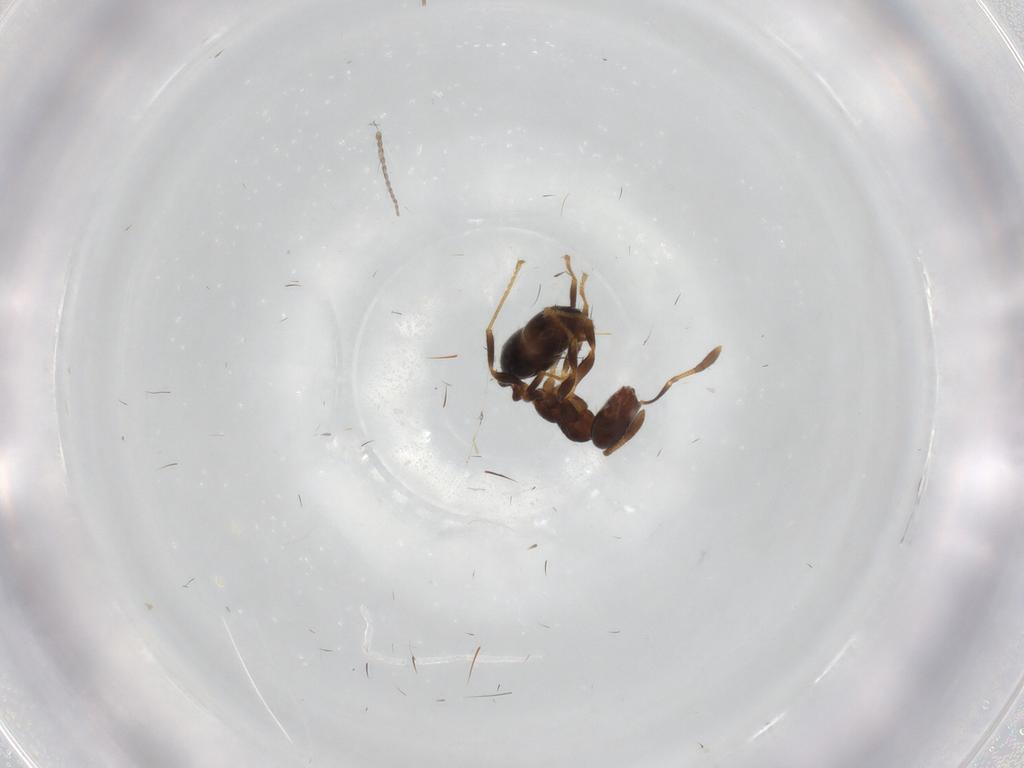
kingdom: Animalia
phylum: Arthropoda
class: Insecta
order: Diptera
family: Limoniidae
